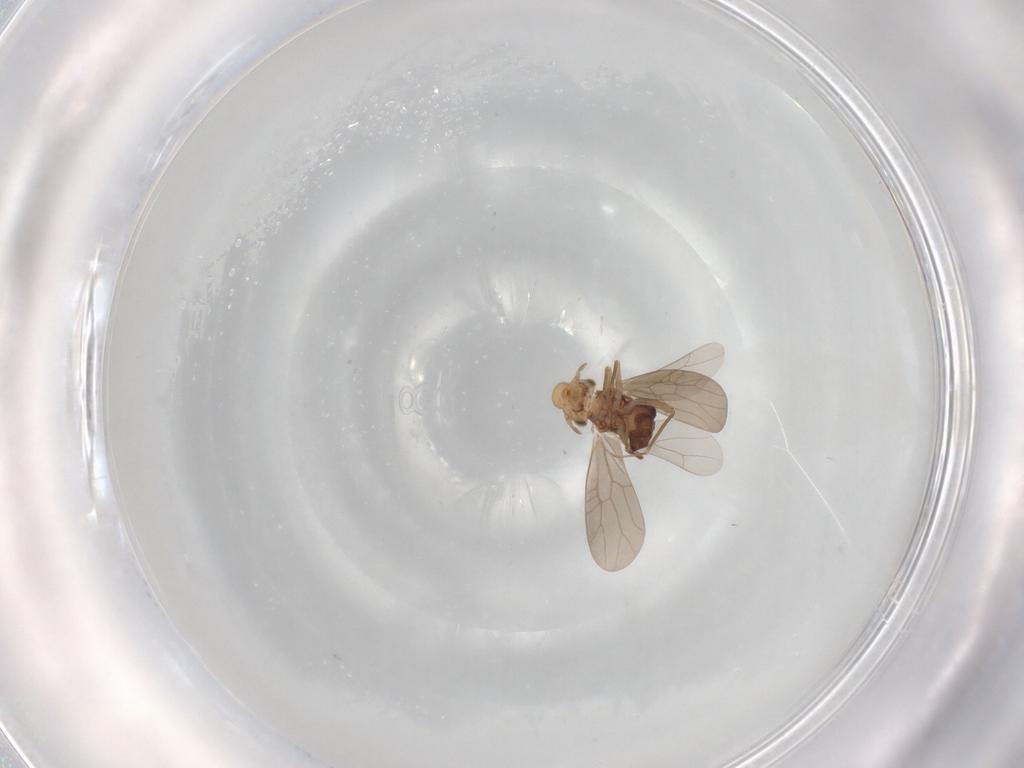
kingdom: Animalia
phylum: Arthropoda
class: Insecta
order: Psocodea
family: Lepidopsocidae
